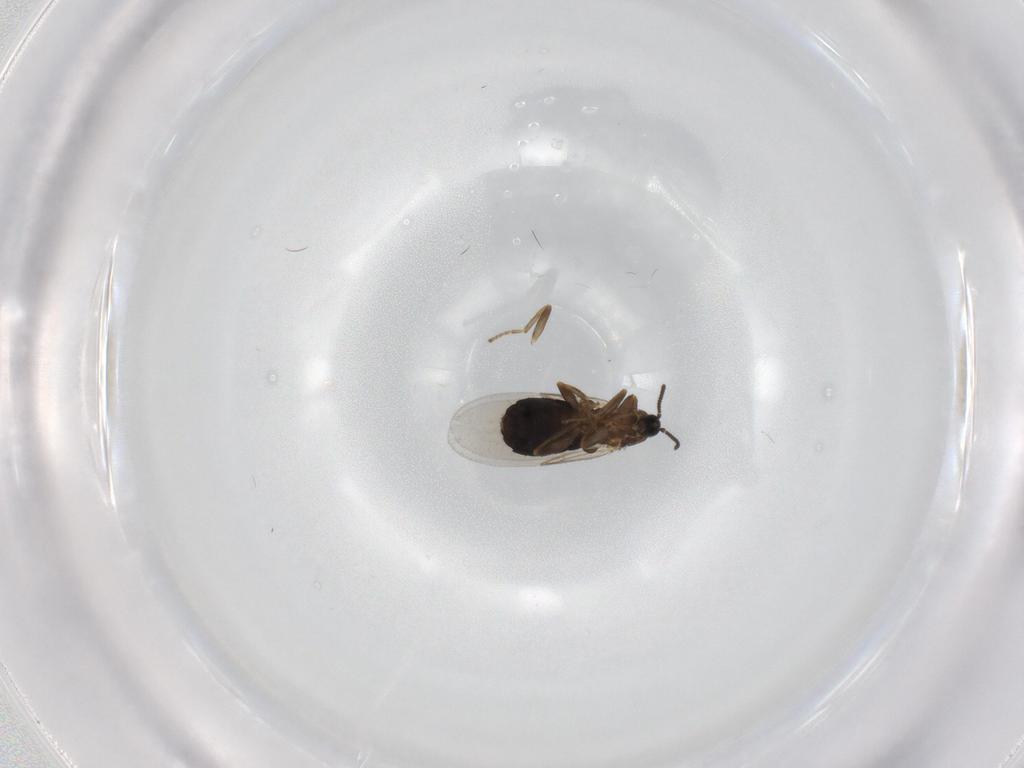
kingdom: Animalia
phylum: Arthropoda
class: Insecta
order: Diptera
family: Scatopsidae
